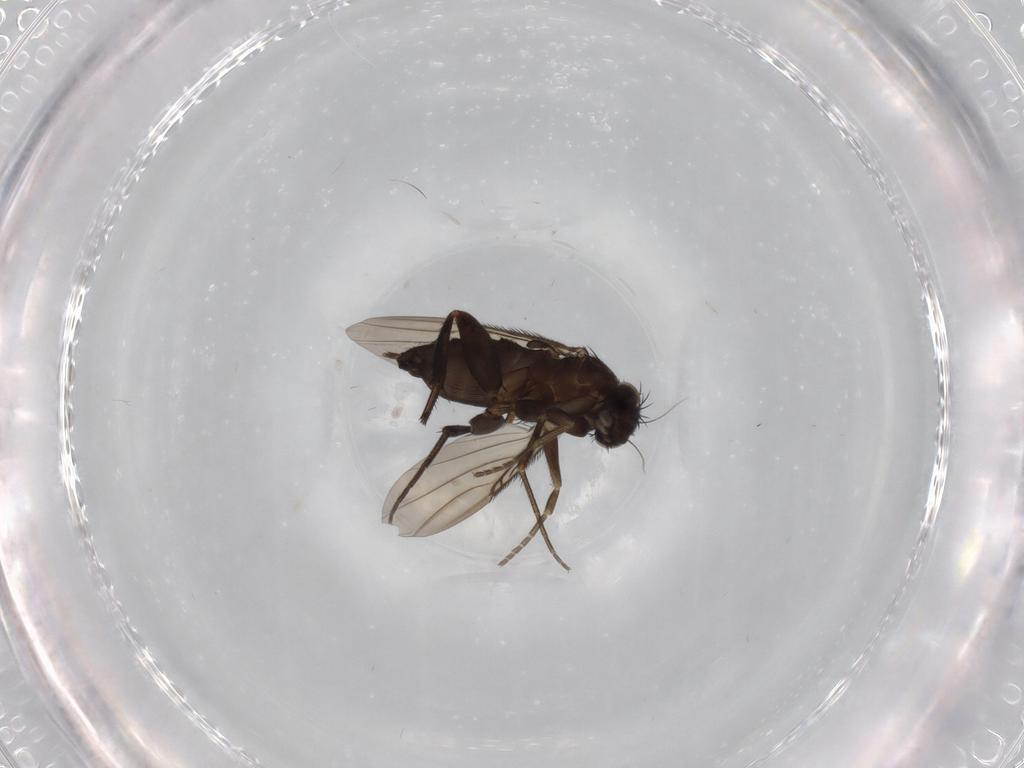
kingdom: Animalia
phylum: Arthropoda
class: Insecta
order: Diptera
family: Phoridae
